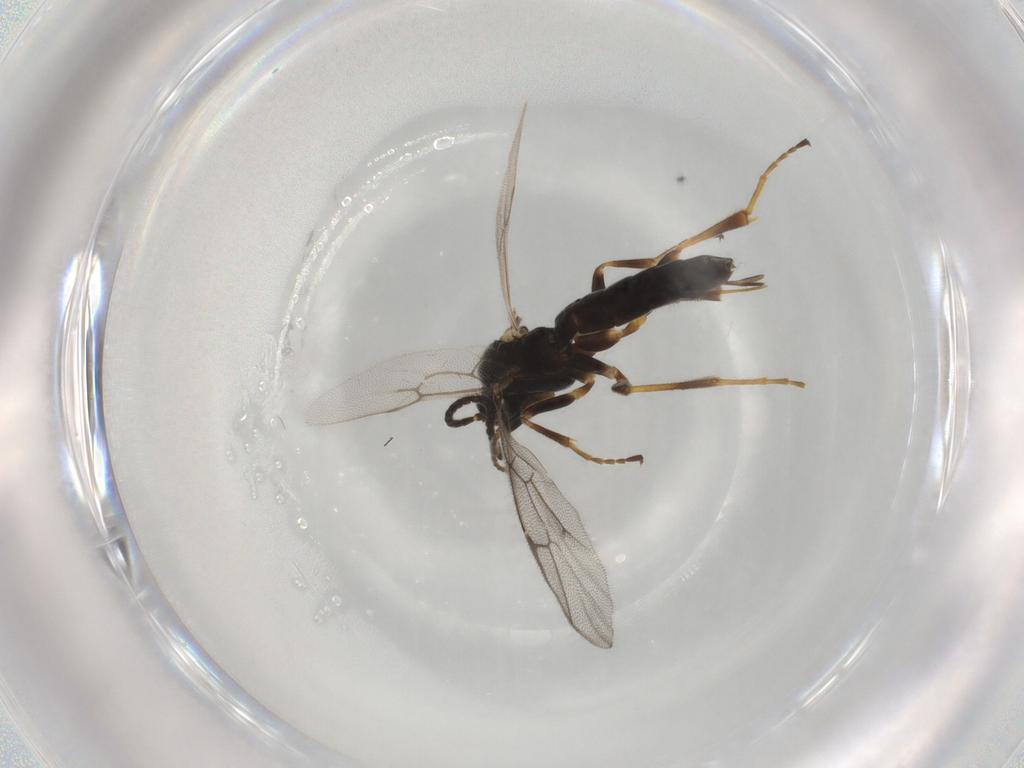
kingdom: Animalia
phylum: Arthropoda
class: Insecta
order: Hymenoptera
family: Ichneumonidae
